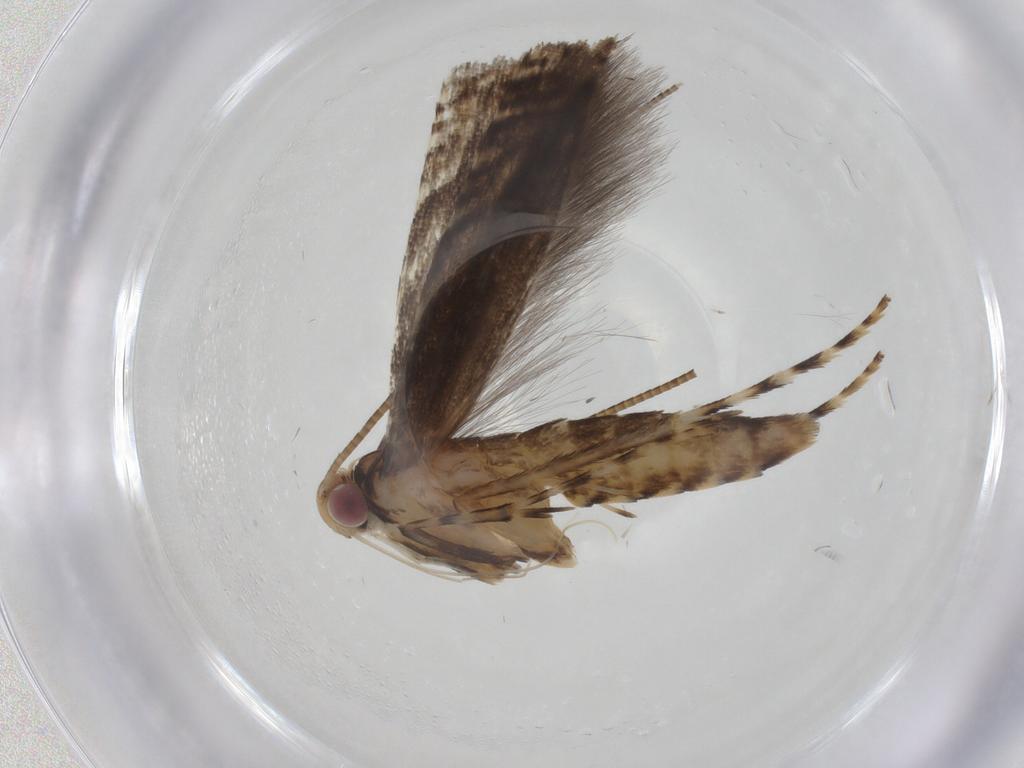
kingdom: Animalia
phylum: Arthropoda
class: Insecta
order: Lepidoptera
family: Gracillariidae
